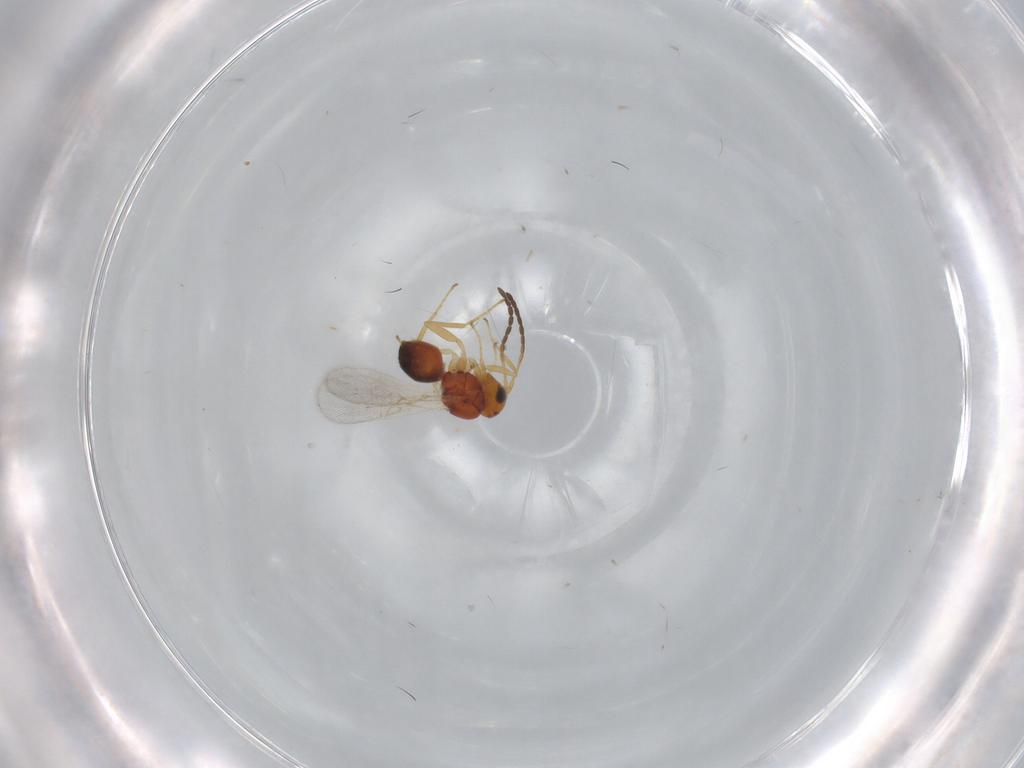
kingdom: Animalia
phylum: Arthropoda
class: Insecta
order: Hymenoptera
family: Figitidae
